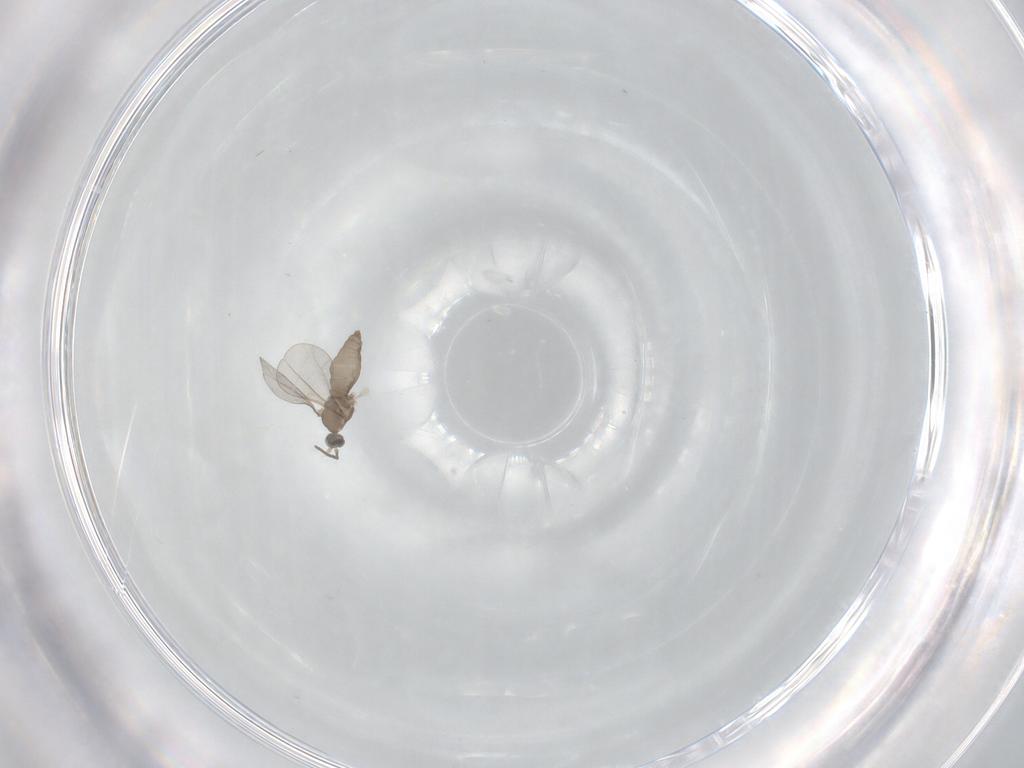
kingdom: Animalia
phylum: Arthropoda
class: Insecta
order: Diptera
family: Cecidomyiidae
